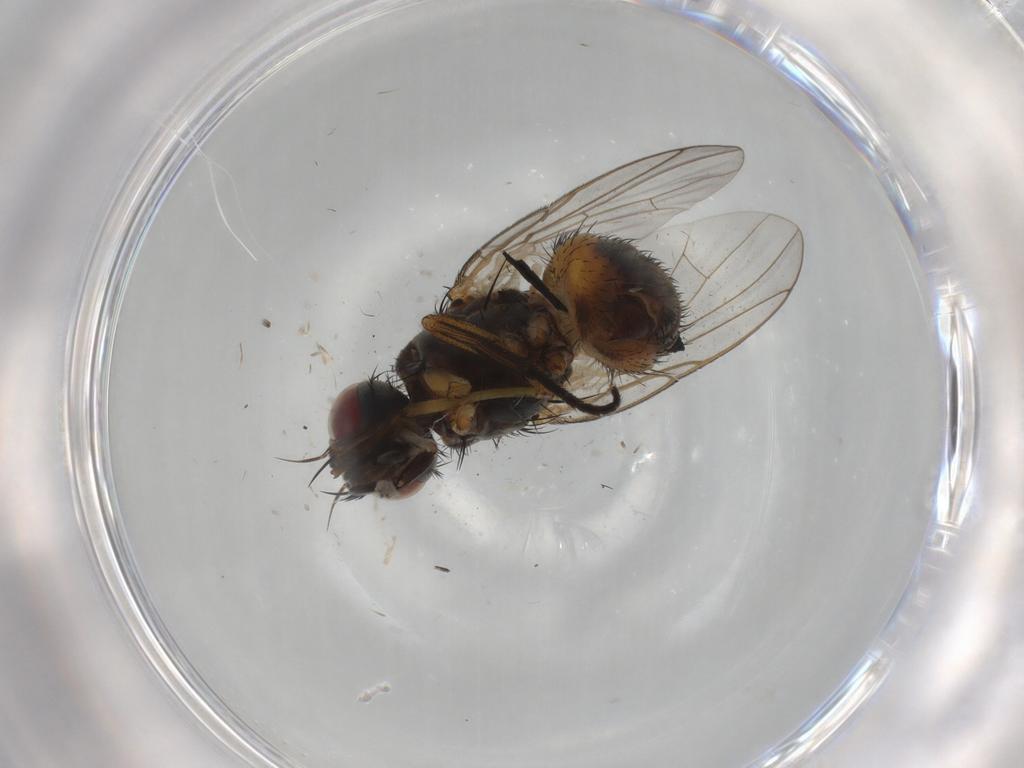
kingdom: Animalia
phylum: Arthropoda
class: Insecta
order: Diptera
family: Muscidae
